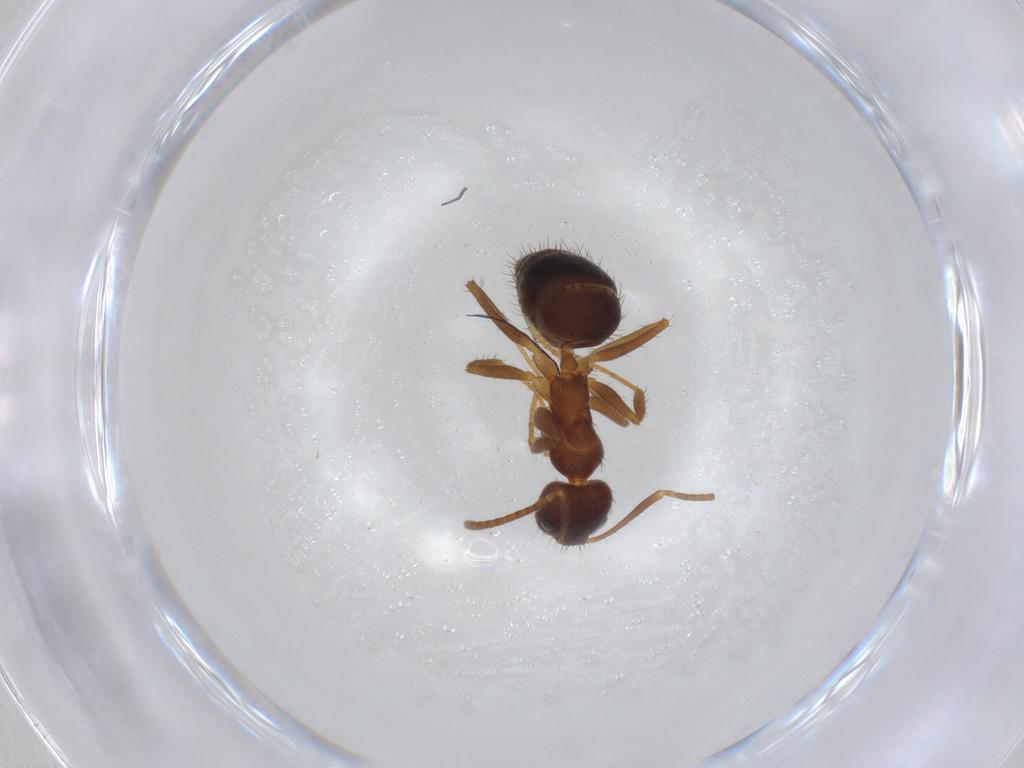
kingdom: Animalia
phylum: Arthropoda
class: Insecta
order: Hymenoptera
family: Formicidae
